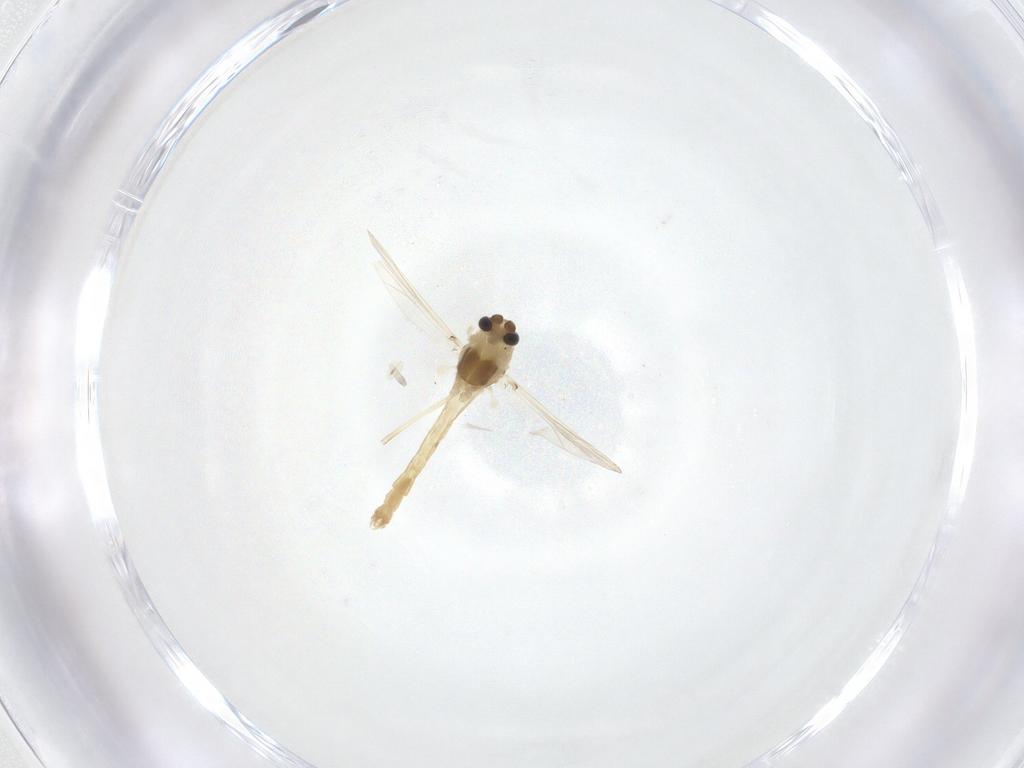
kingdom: Animalia
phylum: Arthropoda
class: Insecta
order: Diptera
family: Chironomidae
